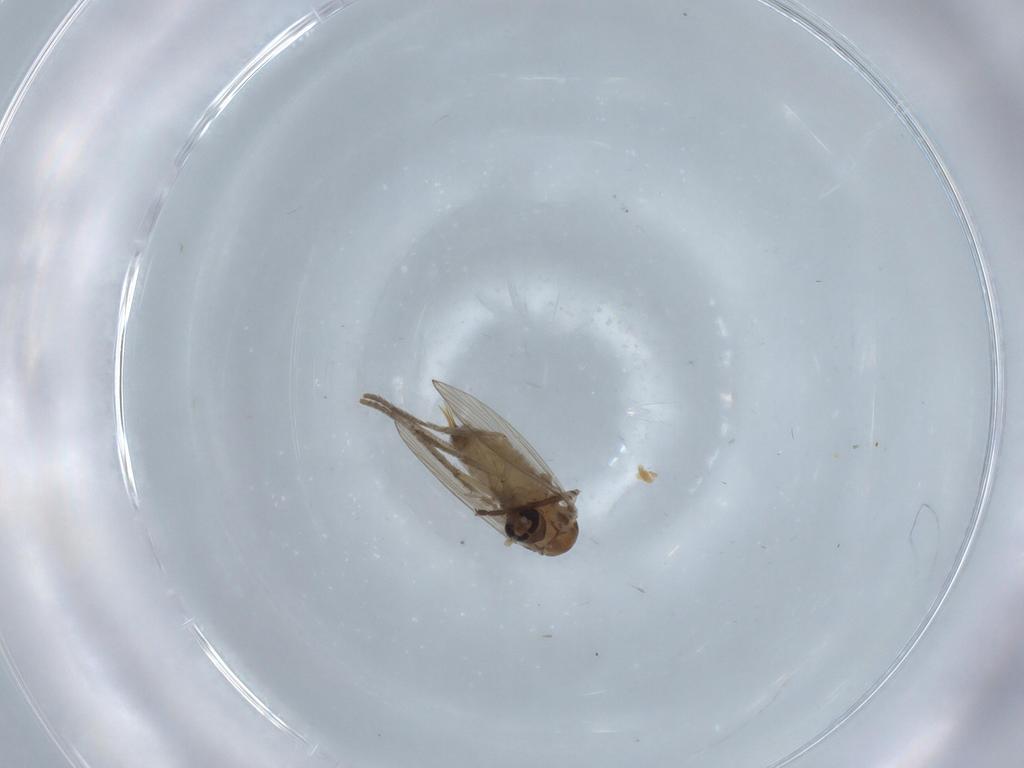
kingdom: Animalia
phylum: Arthropoda
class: Insecta
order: Diptera
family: Chironomidae
